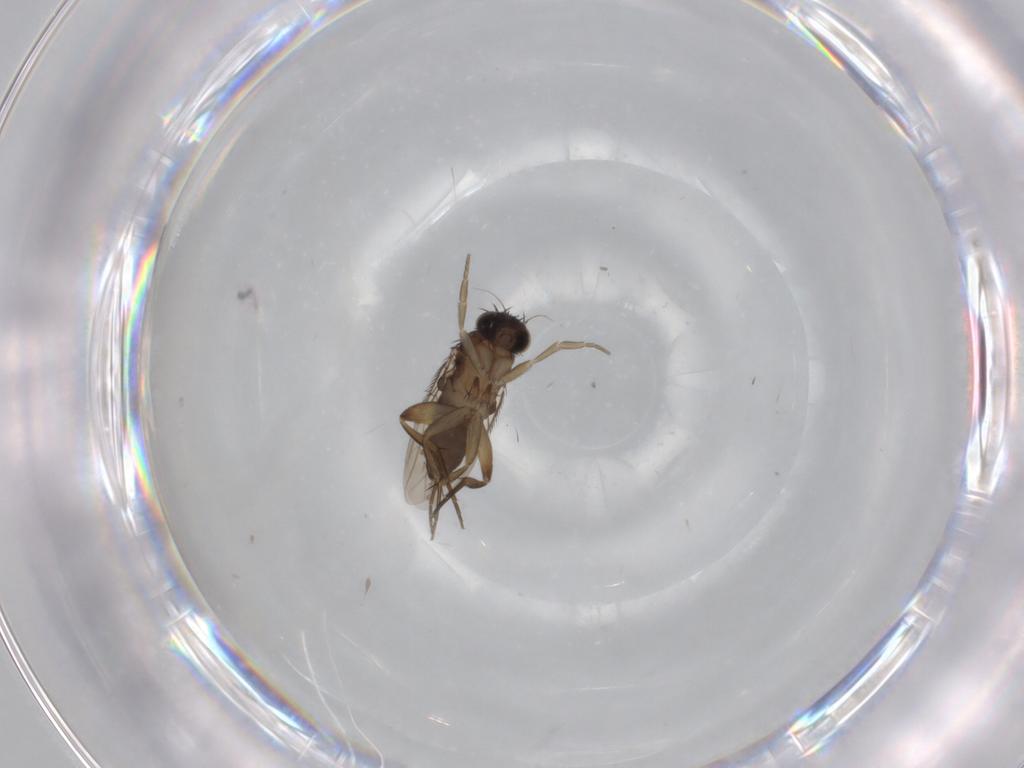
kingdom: Animalia
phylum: Arthropoda
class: Insecta
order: Diptera
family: Phoridae
